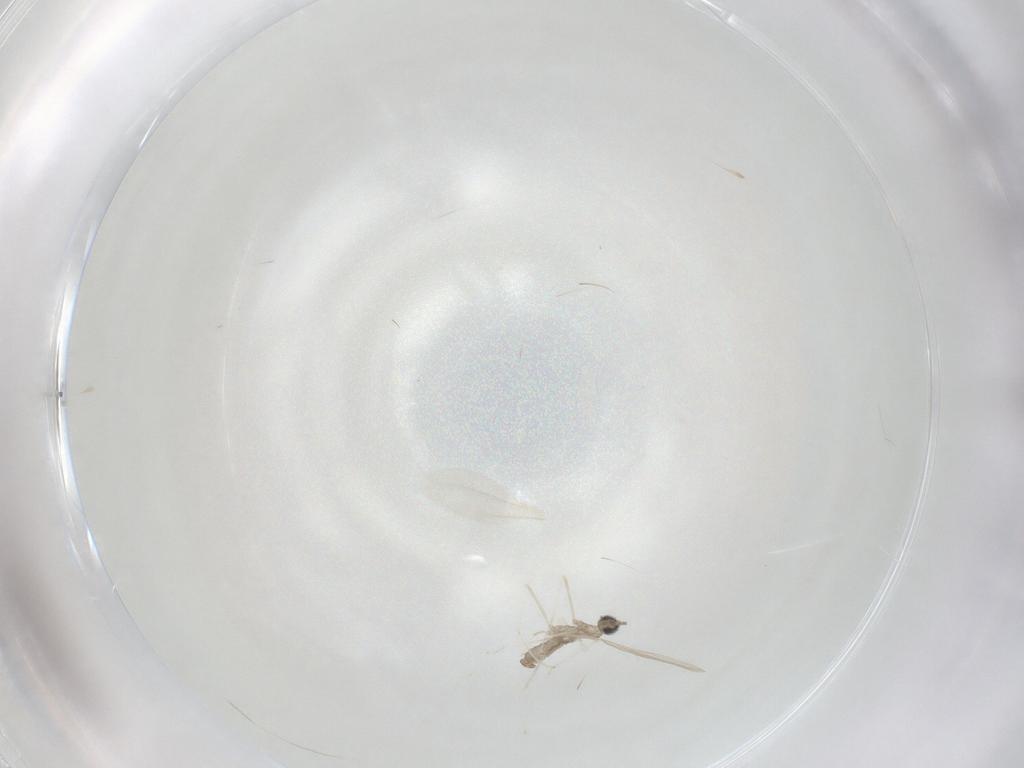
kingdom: Animalia
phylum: Arthropoda
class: Insecta
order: Diptera
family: Cecidomyiidae
